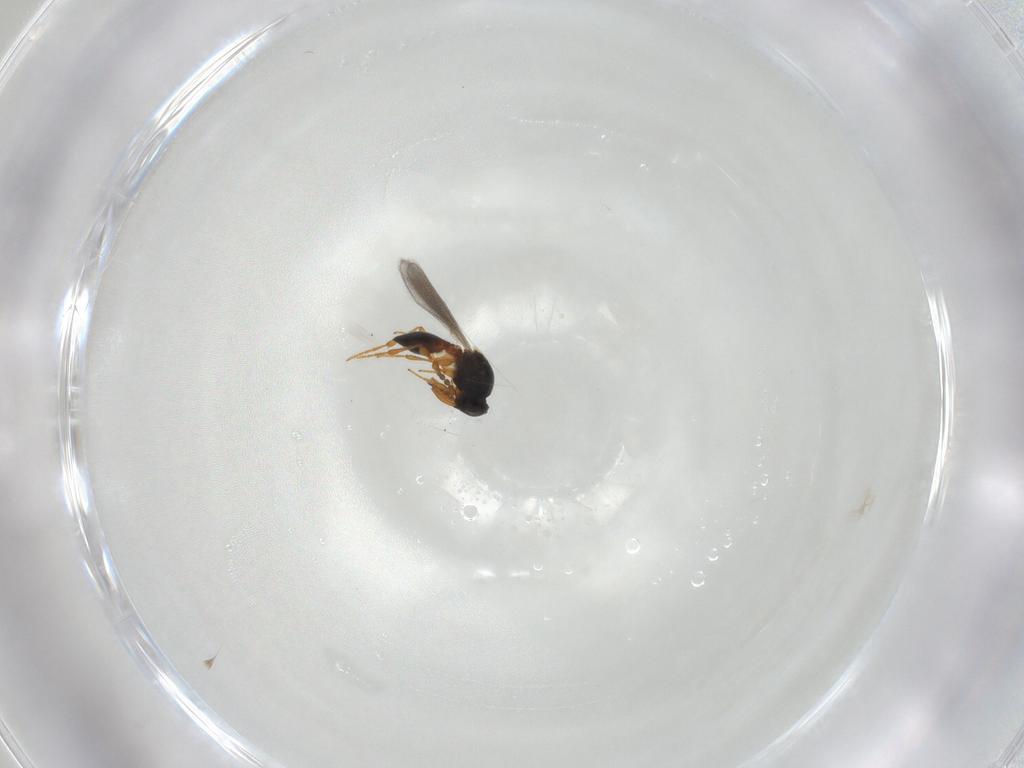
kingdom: Animalia
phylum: Arthropoda
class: Insecta
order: Hymenoptera
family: Platygastridae
